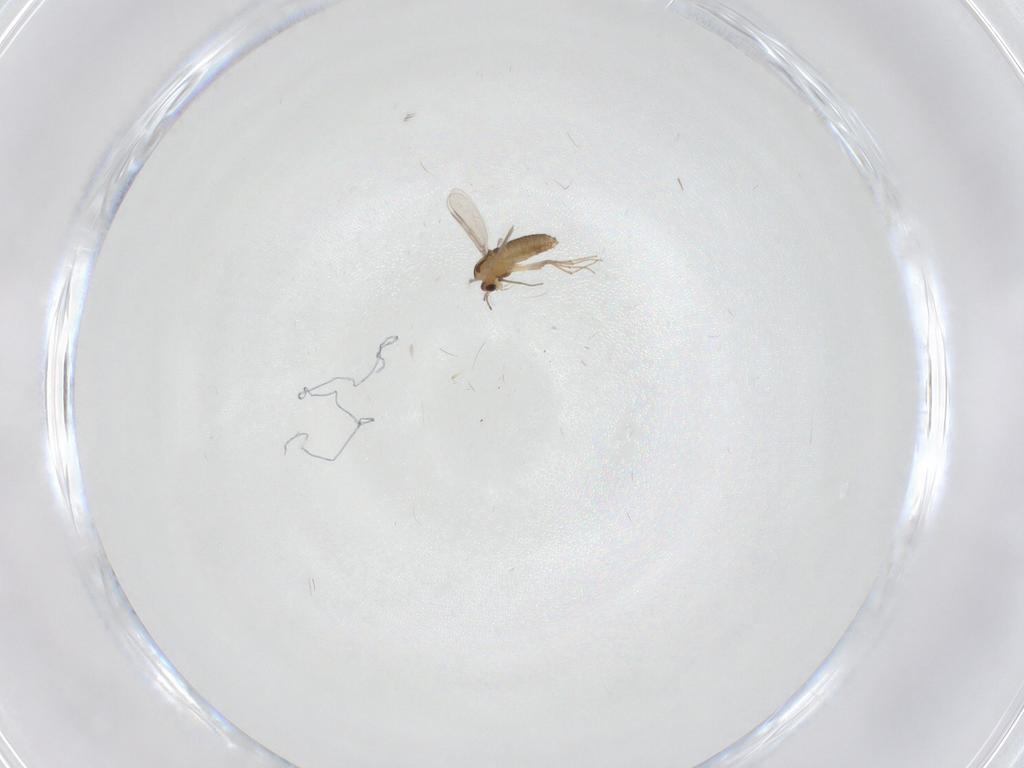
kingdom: Animalia
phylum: Arthropoda
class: Insecta
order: Diptera
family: Chironomidae
